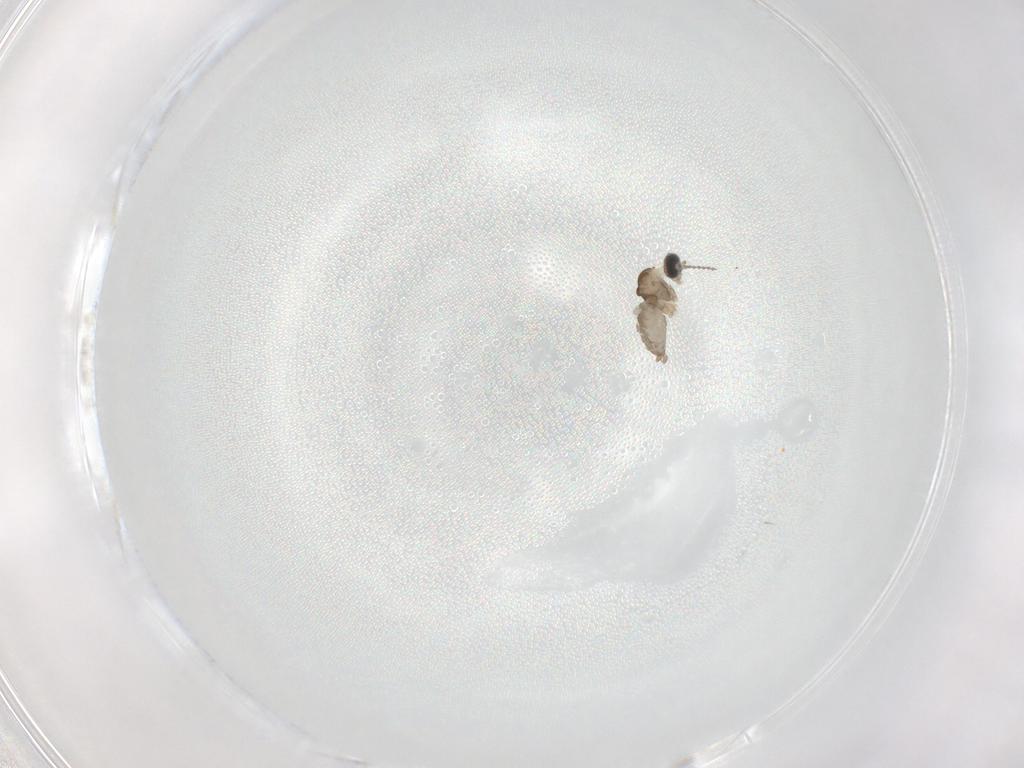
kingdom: Animalia
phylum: Arthropoda
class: Insecta
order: Diptera
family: Cecidomyiidae
